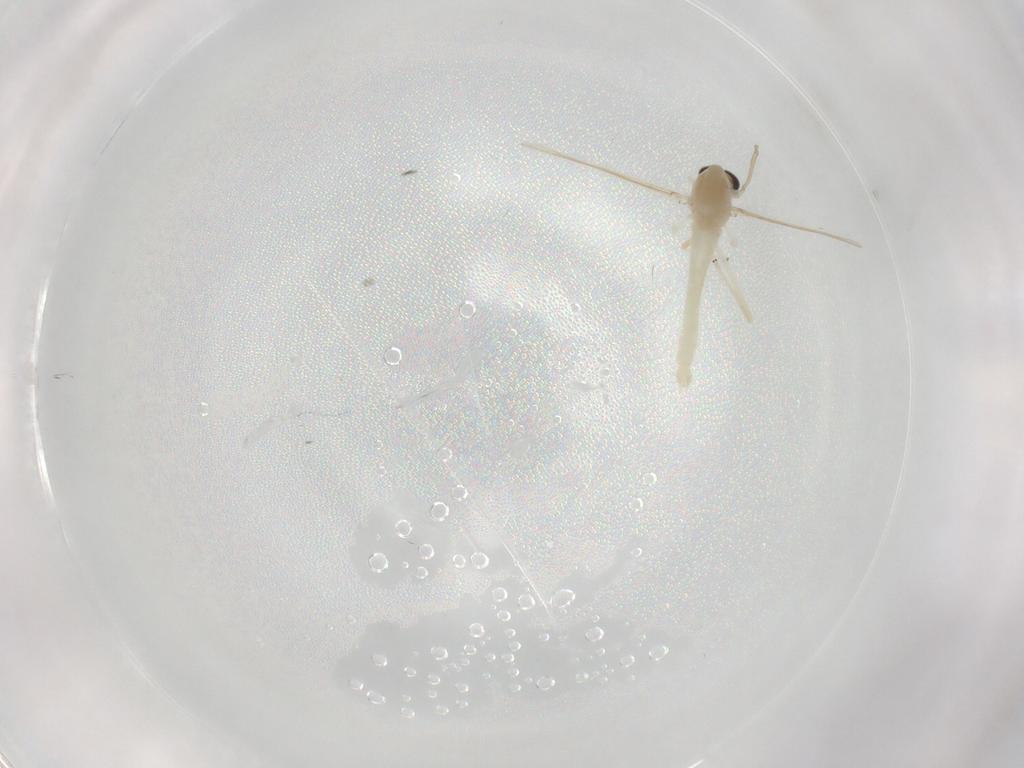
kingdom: Animalia
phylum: Arthropoda
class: Insecta
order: Diptera
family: Chironomidae
